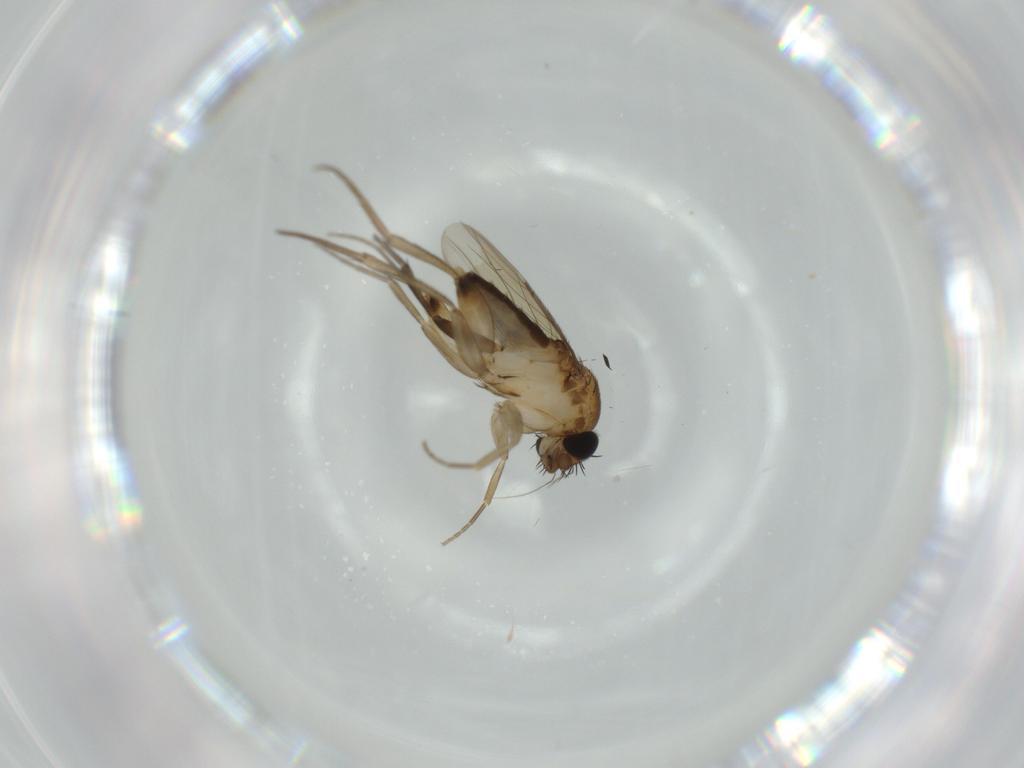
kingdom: Animalia
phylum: Arthropoda
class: Insecta
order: Diptera
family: Phoridae
